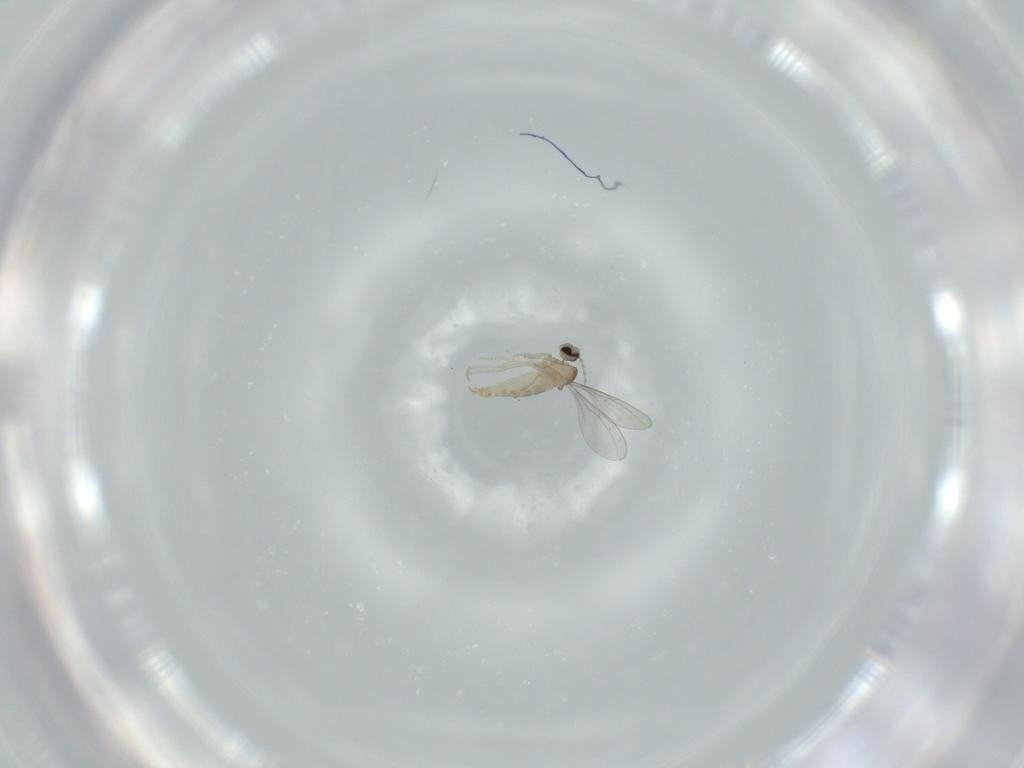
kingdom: Animalia
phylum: Arthropoda
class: Insecta
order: Diptera
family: Cecidomyiidae
